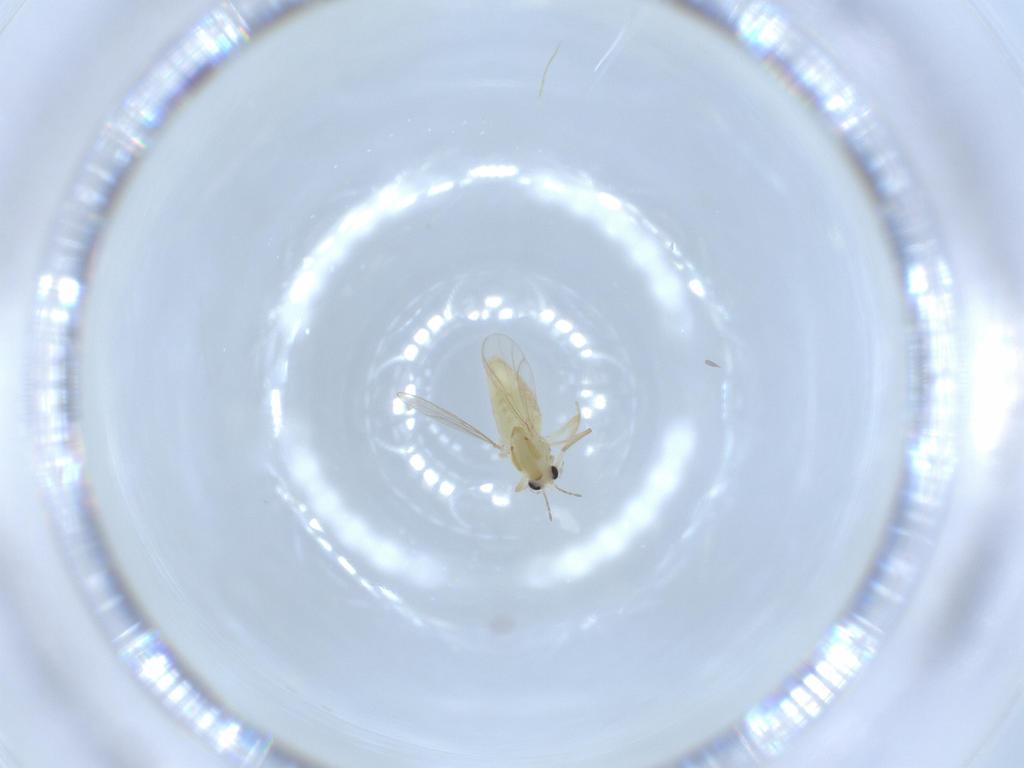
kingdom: Animalia
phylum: Arthropoda
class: Insecta
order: Diptera
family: Chironomidae
